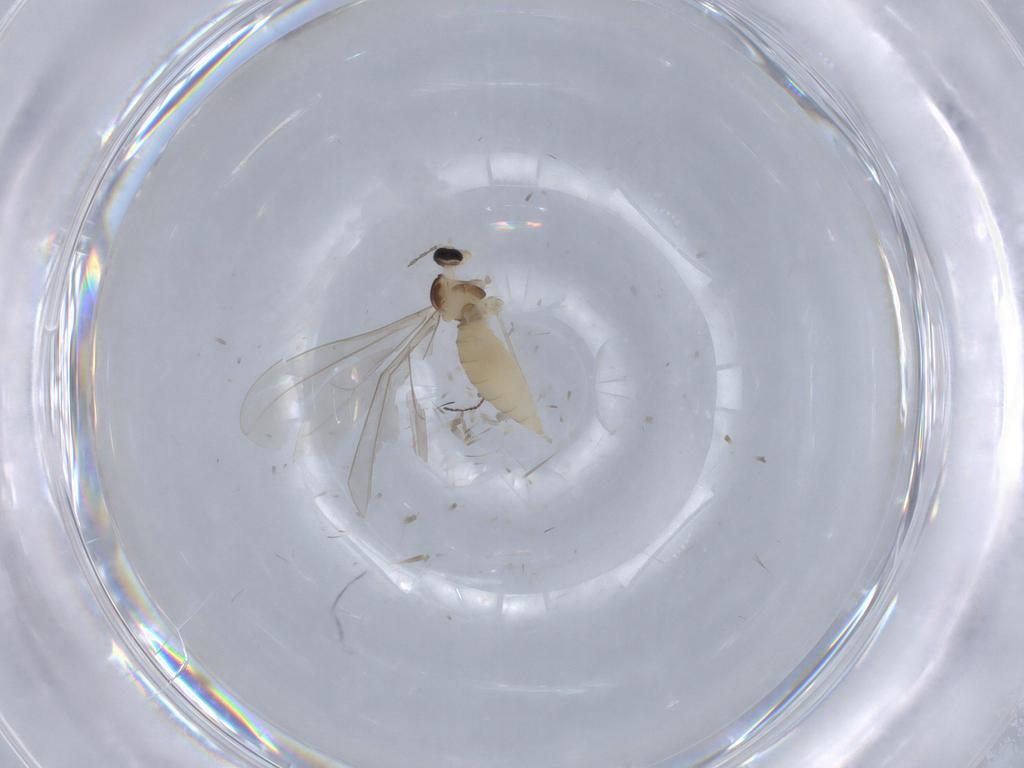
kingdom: Animalia
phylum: Arthropoda
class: Insecta
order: Diptera
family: Cecidomyiidae
